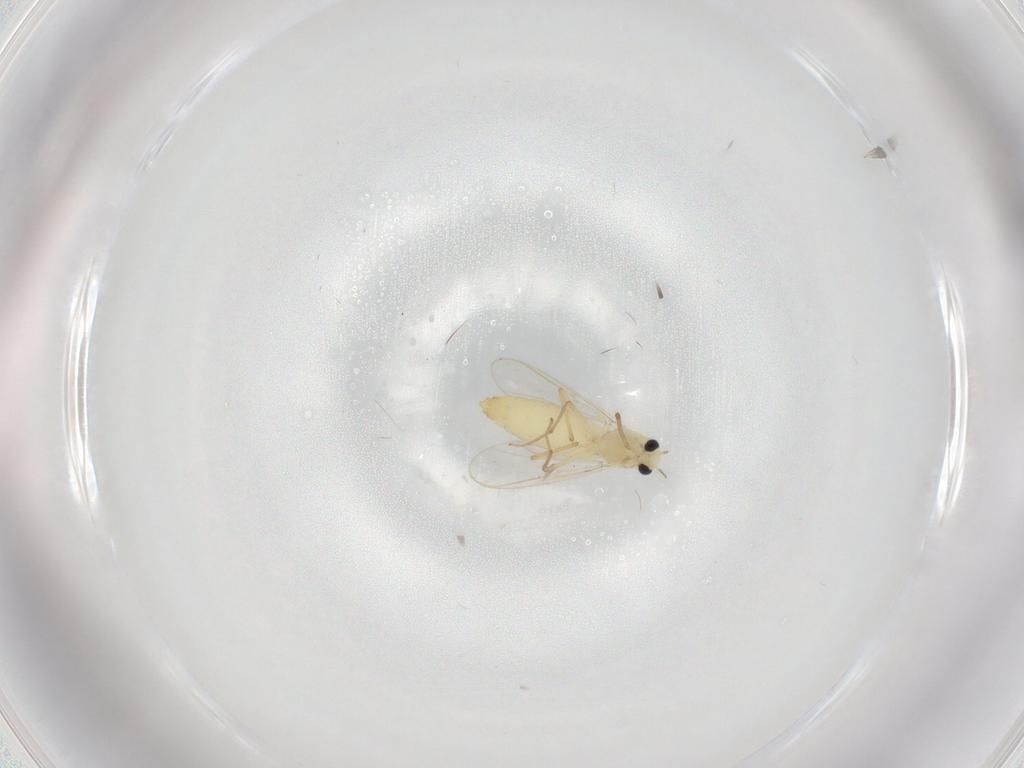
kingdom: Animalia
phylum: Arthropoda
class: Insecta
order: Diptera
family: Chironomidae
